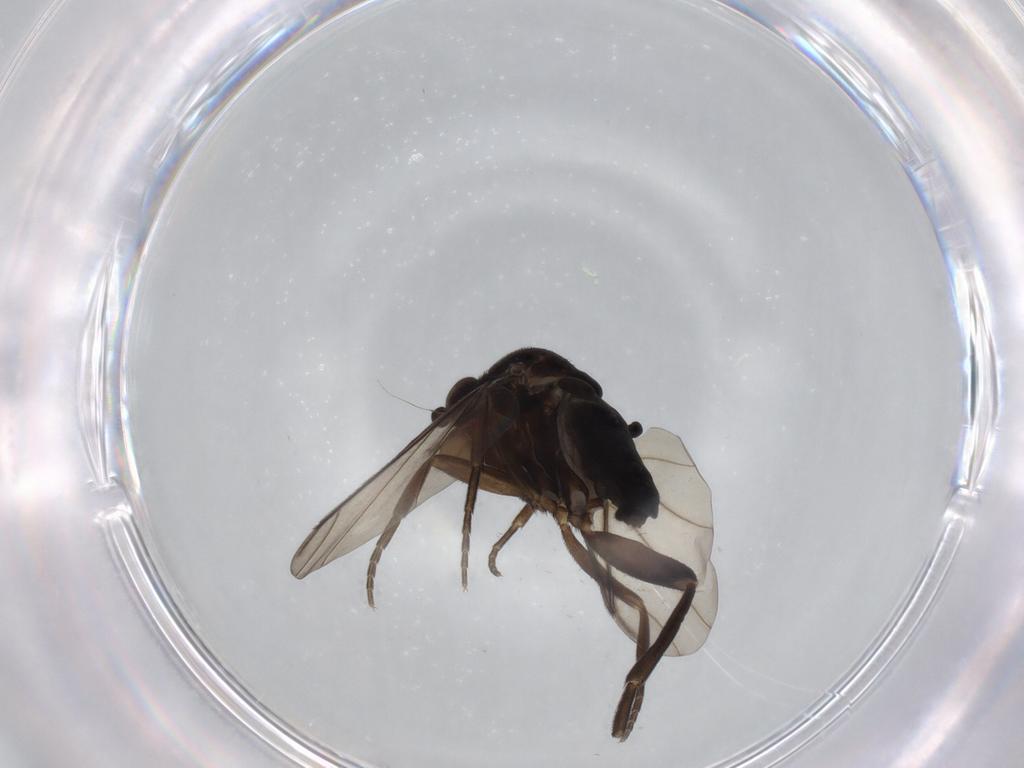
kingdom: Animalia
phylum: Arthropoda
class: Insecta
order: Diptera
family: Phoridae
